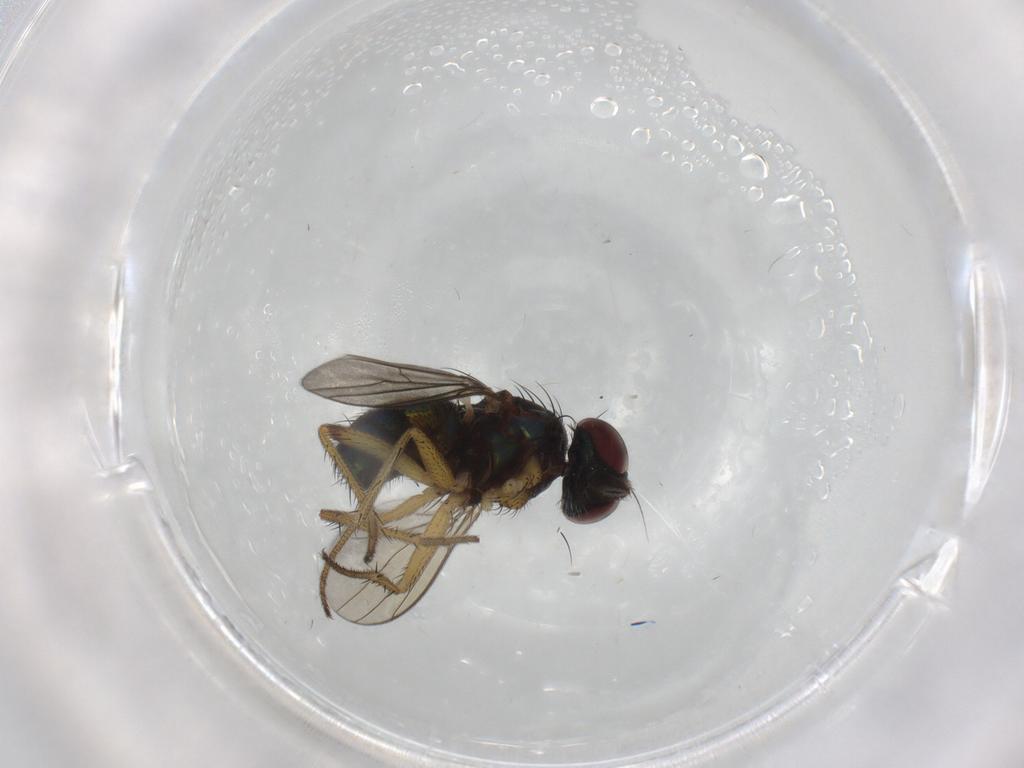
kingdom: Animalia
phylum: Arthropoda
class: Insecta
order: Diptera
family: Dolichopodidae
